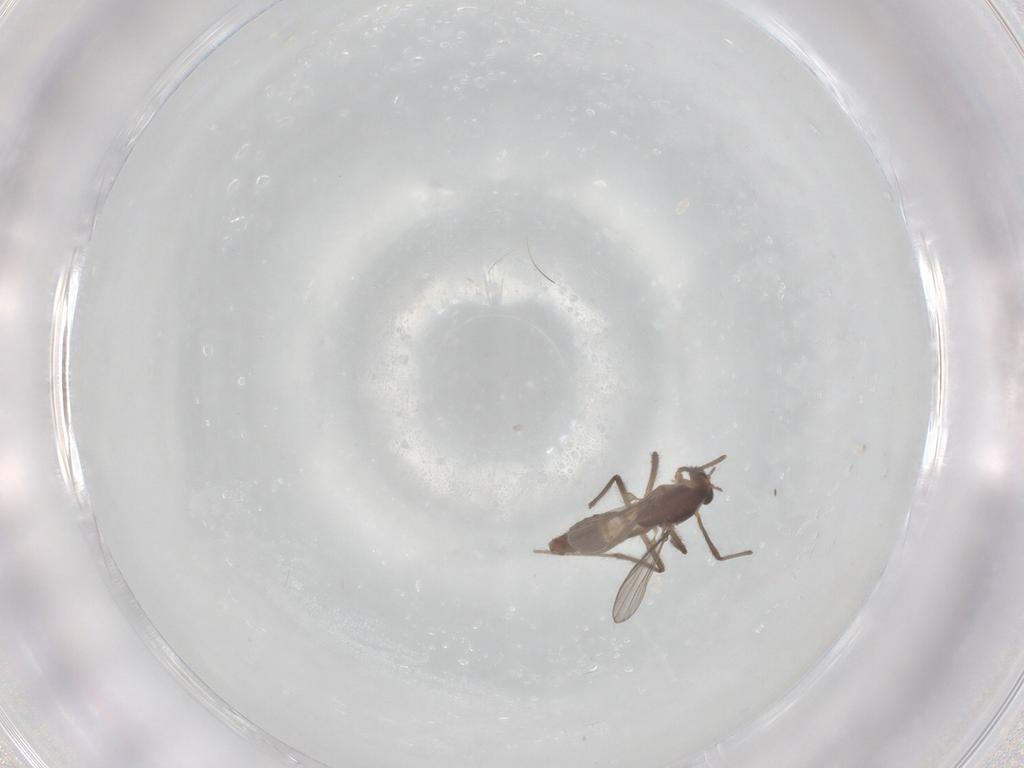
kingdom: Animalia
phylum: Arthropoda
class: Insecta
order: Diptera
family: Chironomidae
